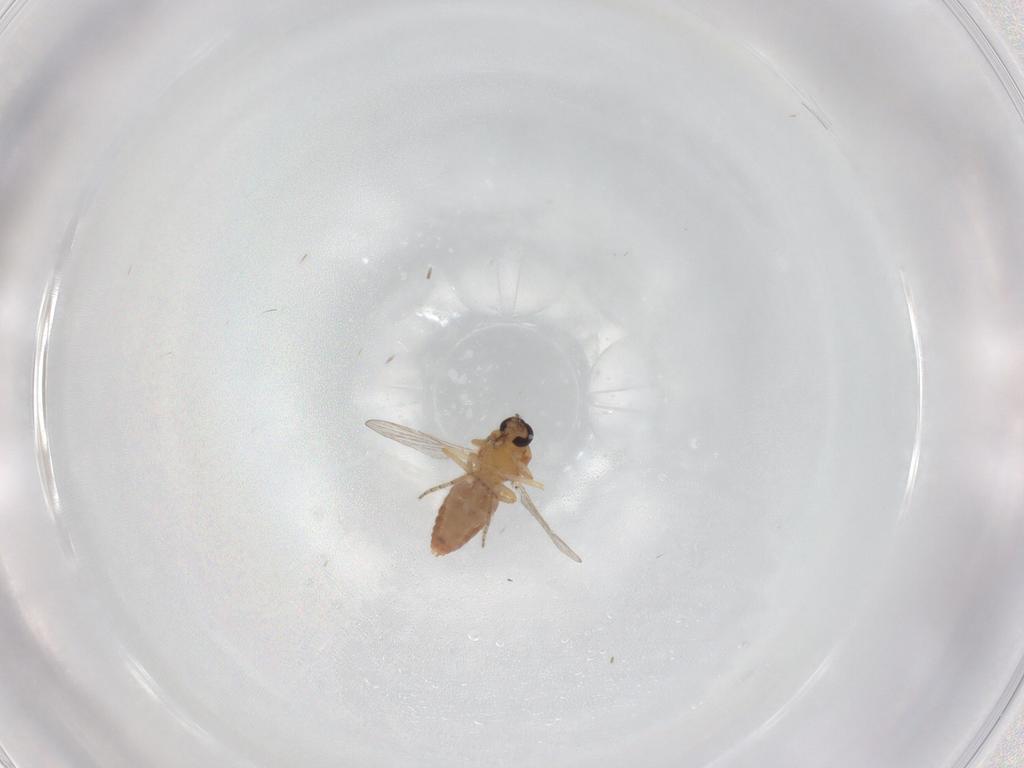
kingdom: Animalia
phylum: Arthropoda
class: Insecta
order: Diptera
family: Ceratopogonidae
